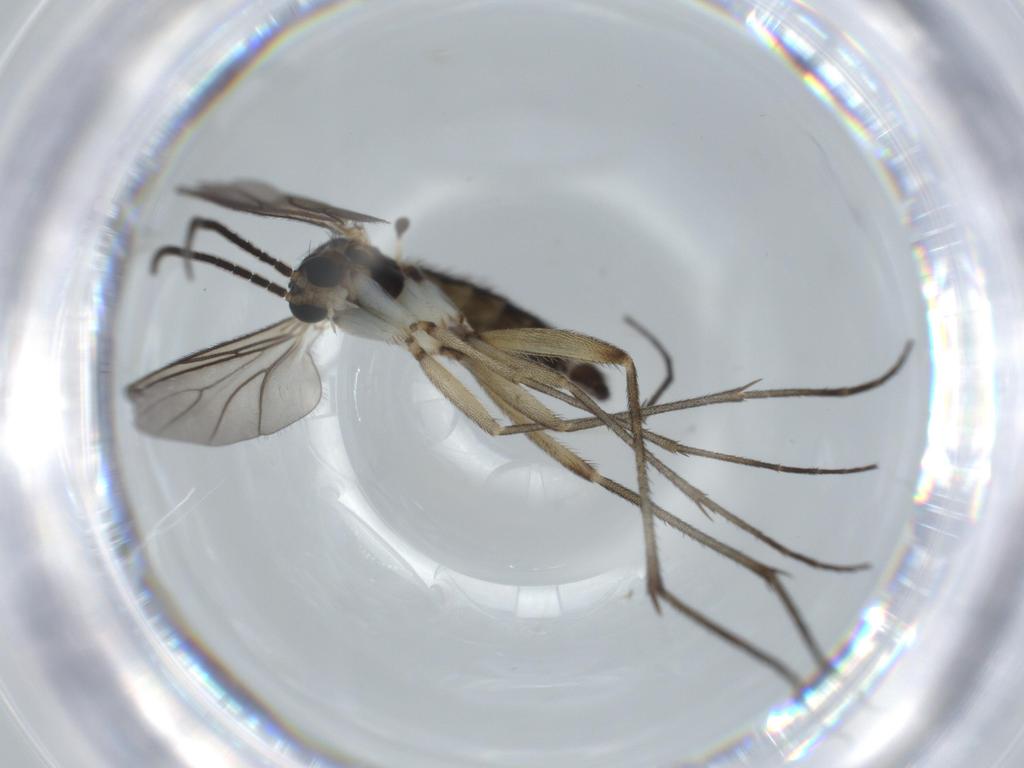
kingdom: Animalia
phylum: Arthropoda
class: Insecta
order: Diptera
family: Sciaridae
